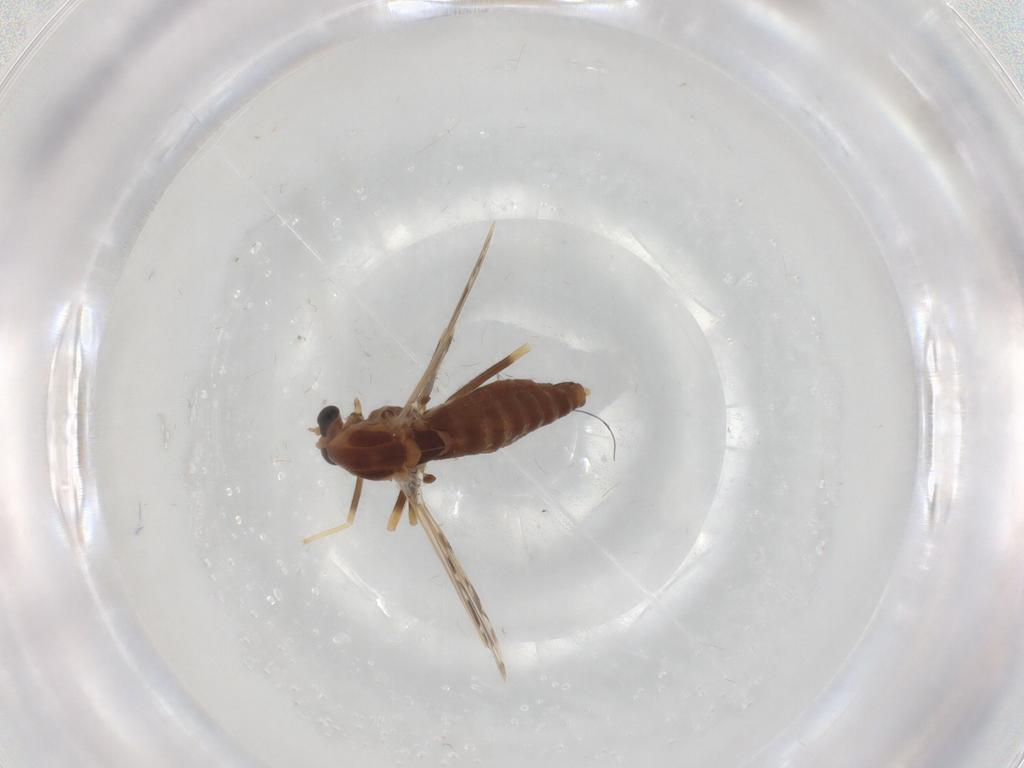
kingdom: Animalia
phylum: Arthropoda
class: Insecta
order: Diptera
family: Chironomidae
